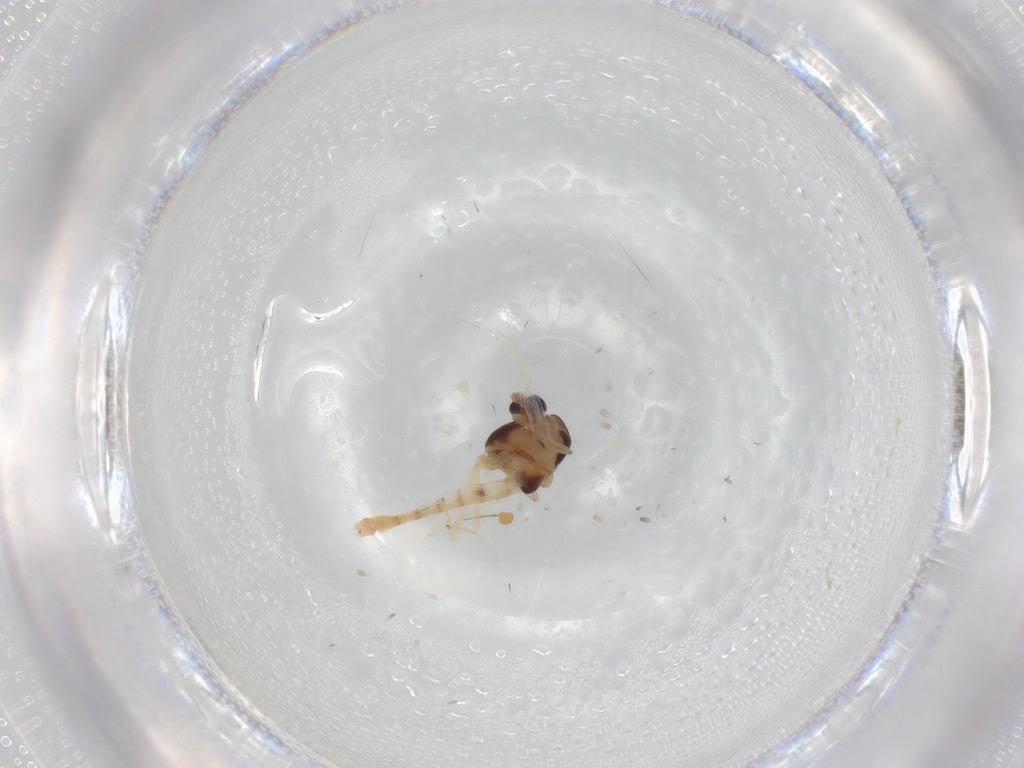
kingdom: Animalia
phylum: Arthropoda
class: Insecta
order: Diptera
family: Chironomidae
